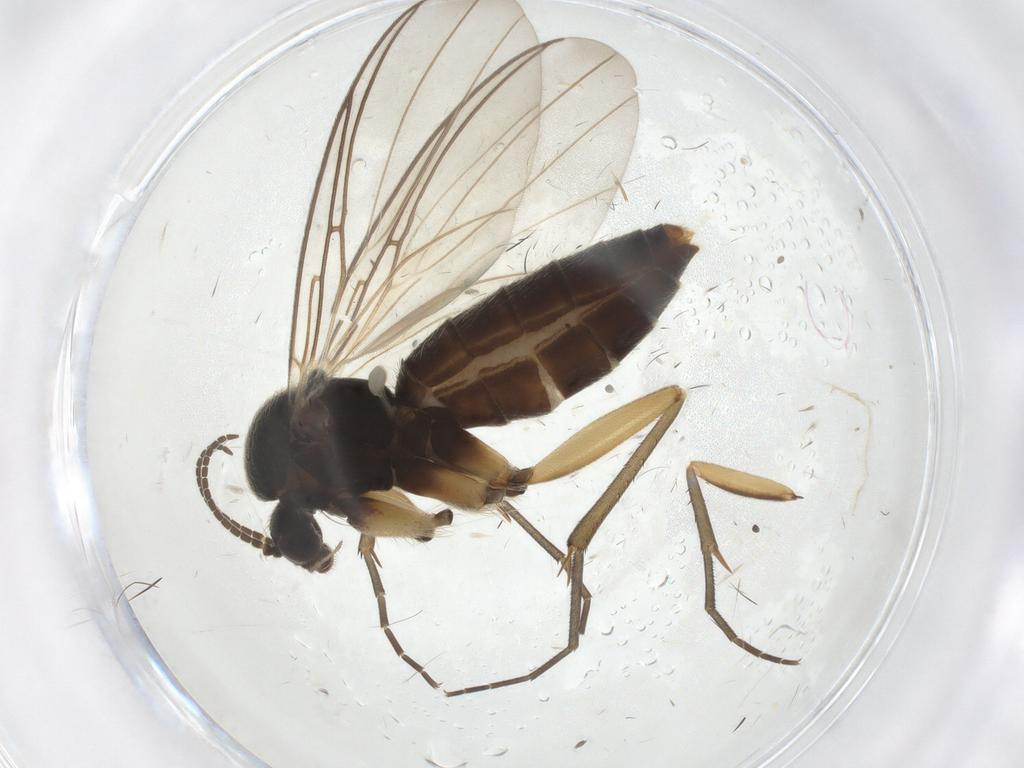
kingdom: Animalia
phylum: Arthropoda
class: Insecta
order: Diptera
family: Mycetophilidae
